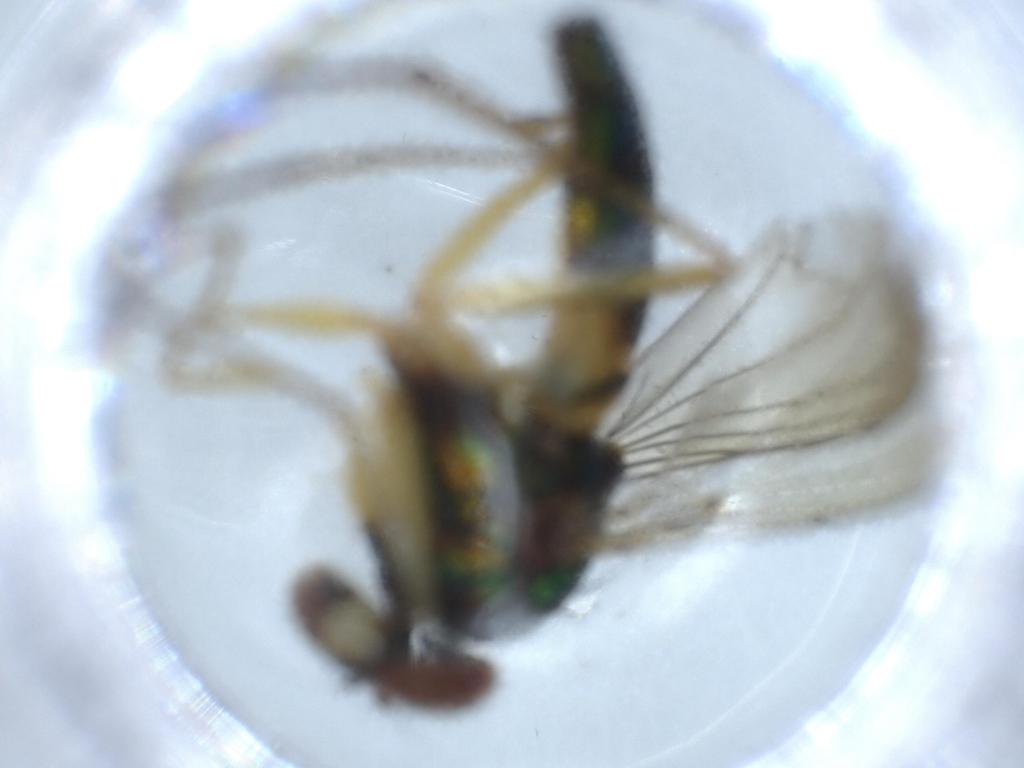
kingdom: Animalia
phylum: Arthropoda
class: Insecta
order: Diptera
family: Dolichopodidae
